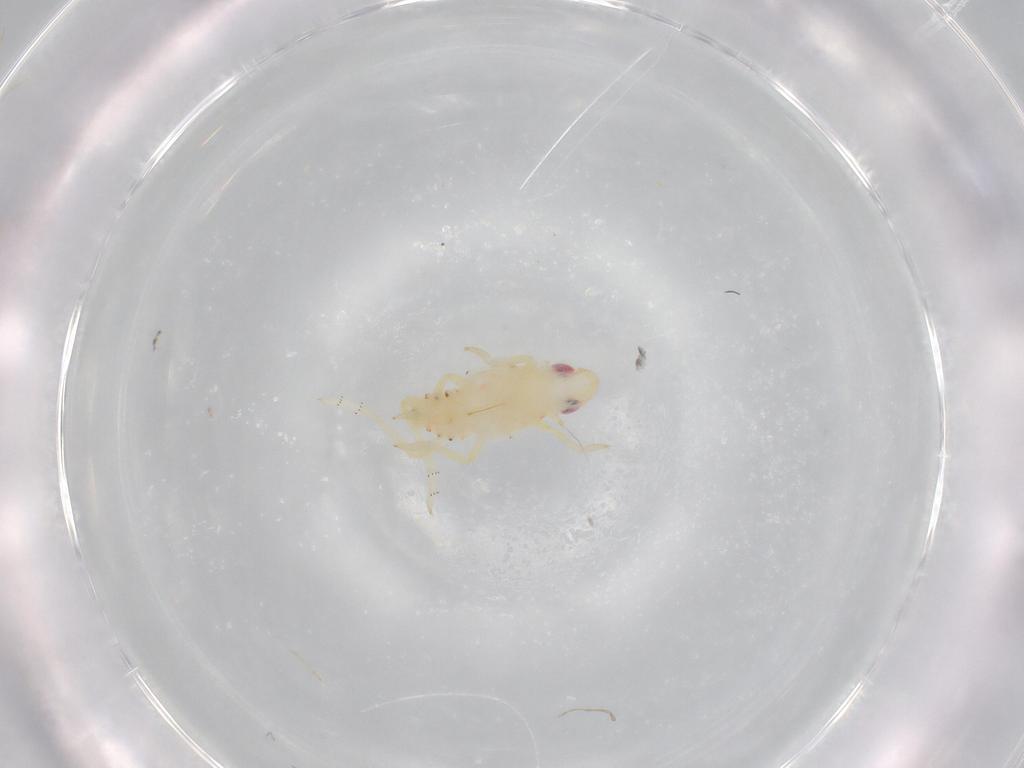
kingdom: Animalia
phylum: Arthropoda
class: Insecta
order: Hemiptera
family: Tropiduchidae
